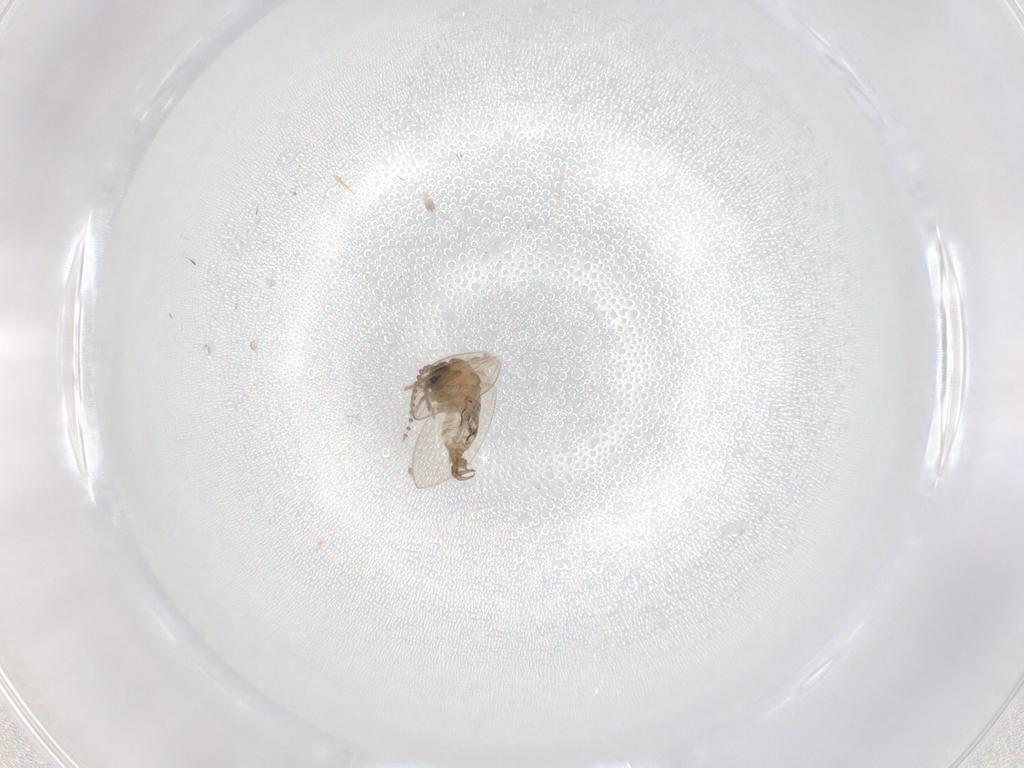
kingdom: Animalia
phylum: Arthropoda
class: Insecta
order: Diptera
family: Ceratopogonidae
